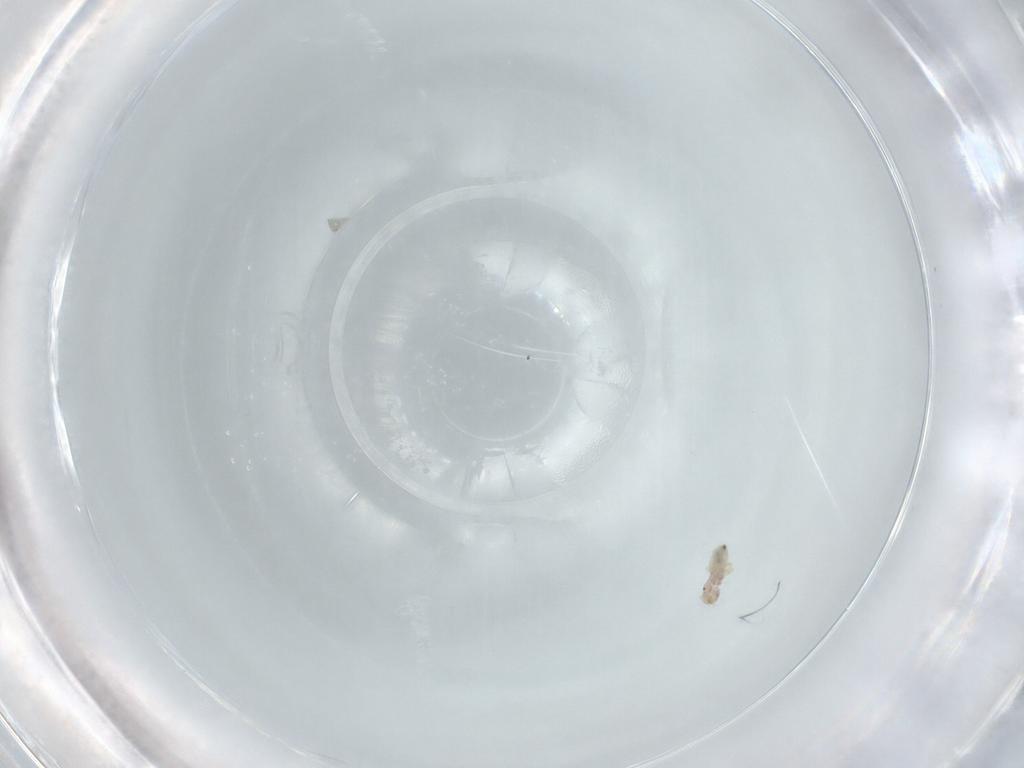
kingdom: Animalia
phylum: Arthropoda
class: Insecta
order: Psocodea
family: Liposcelididae
